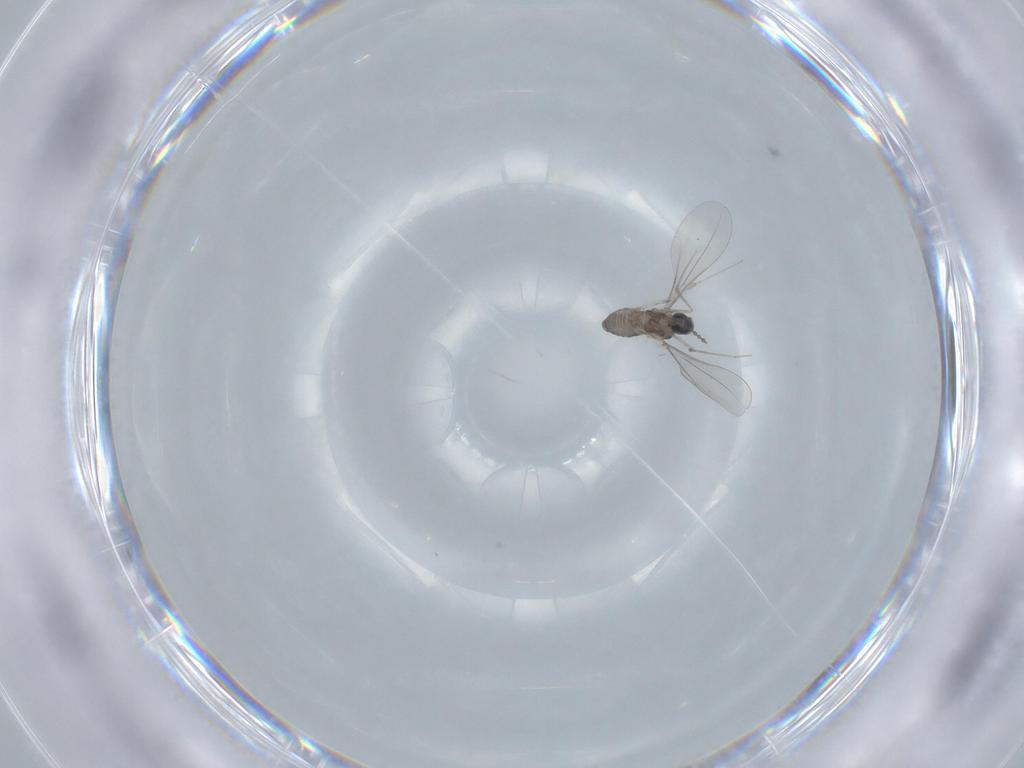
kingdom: Animalia
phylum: Arthropoda
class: Insecta
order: Diptera
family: Cecidomyiidae
